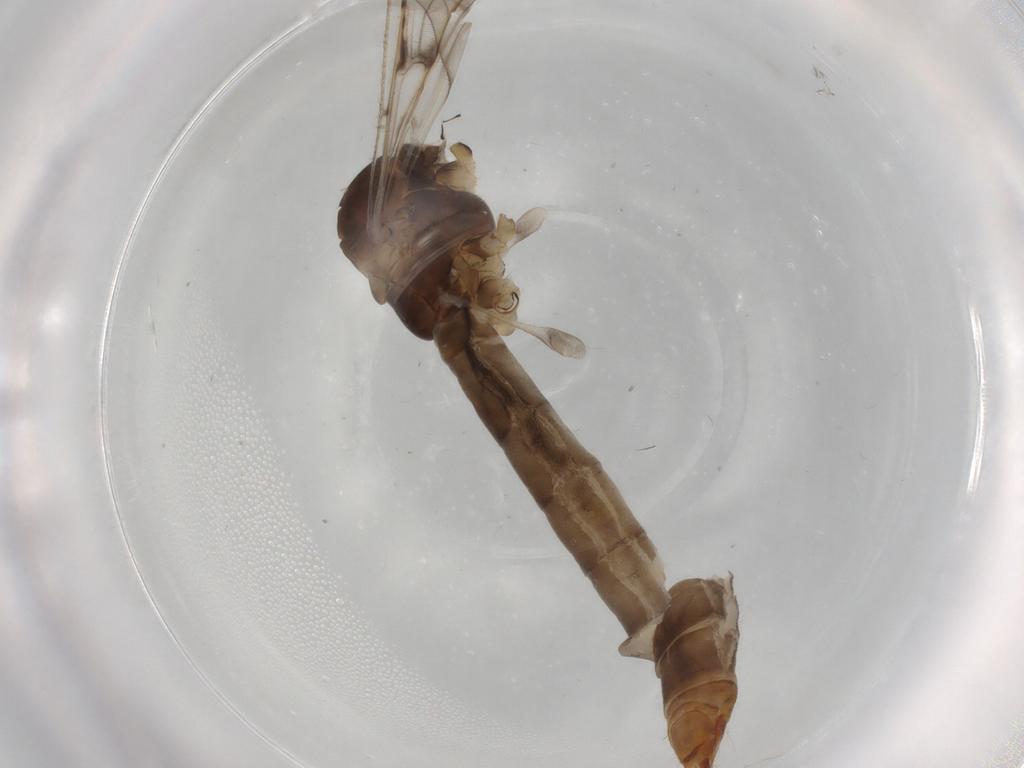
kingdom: Animalia
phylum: Arthropoda
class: Insecta
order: Diptera
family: Limoniidae
